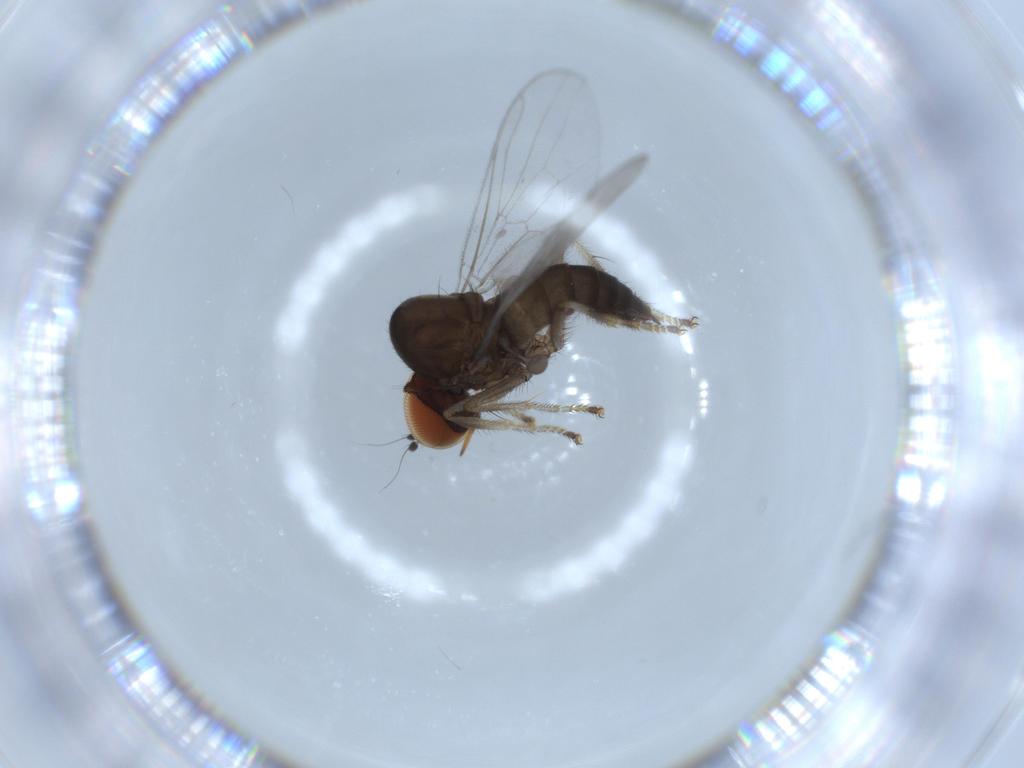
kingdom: Animalia
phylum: Arthropoda
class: Insecta
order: Diptera
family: Hybotidae
